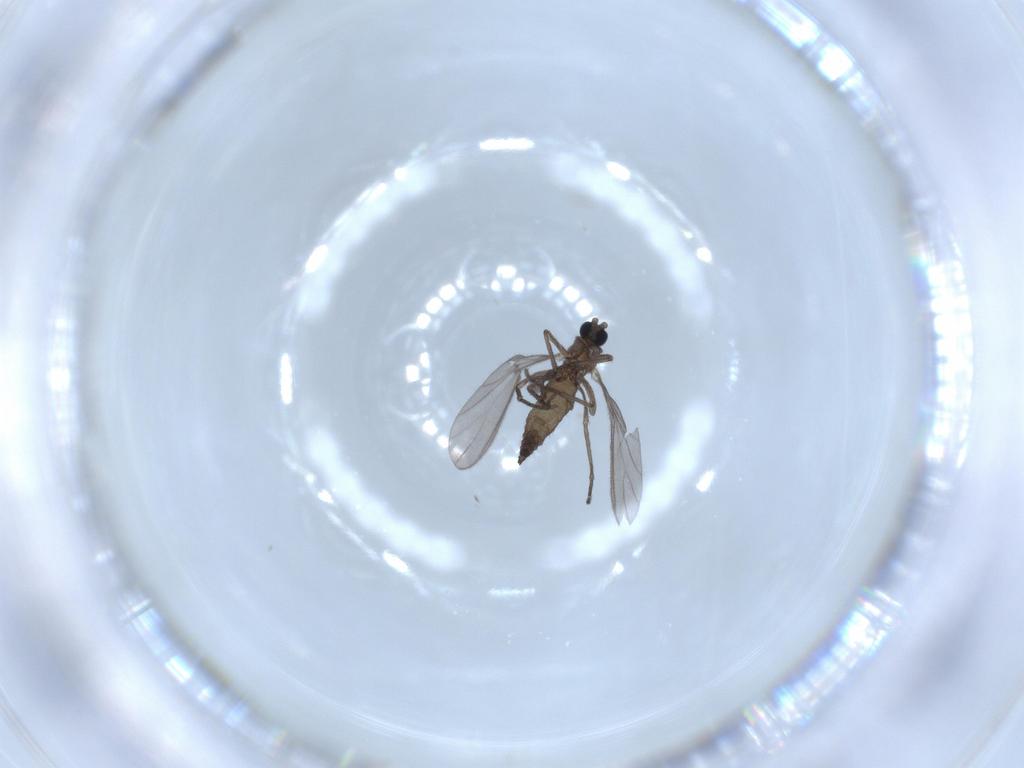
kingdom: Animalia
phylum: Arthropoda
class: Insecta
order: Diptera
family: Sciaridae
